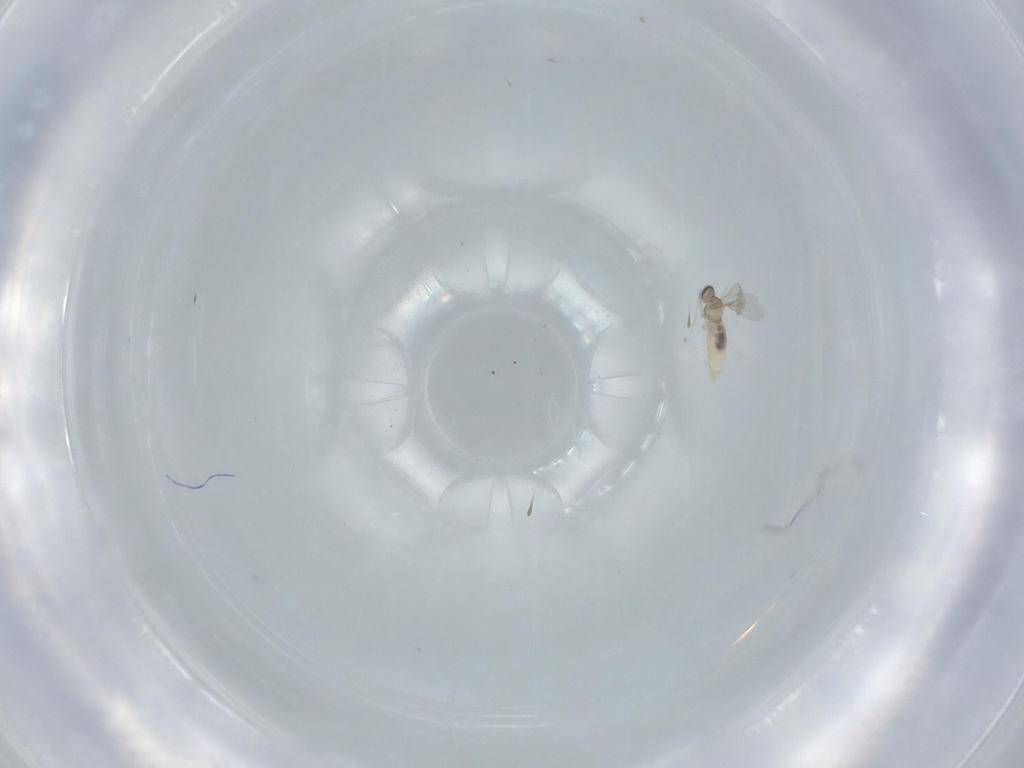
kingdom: Animalia
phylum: Arthropoda
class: Insecta
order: Diptera
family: Cecidomyiidae
